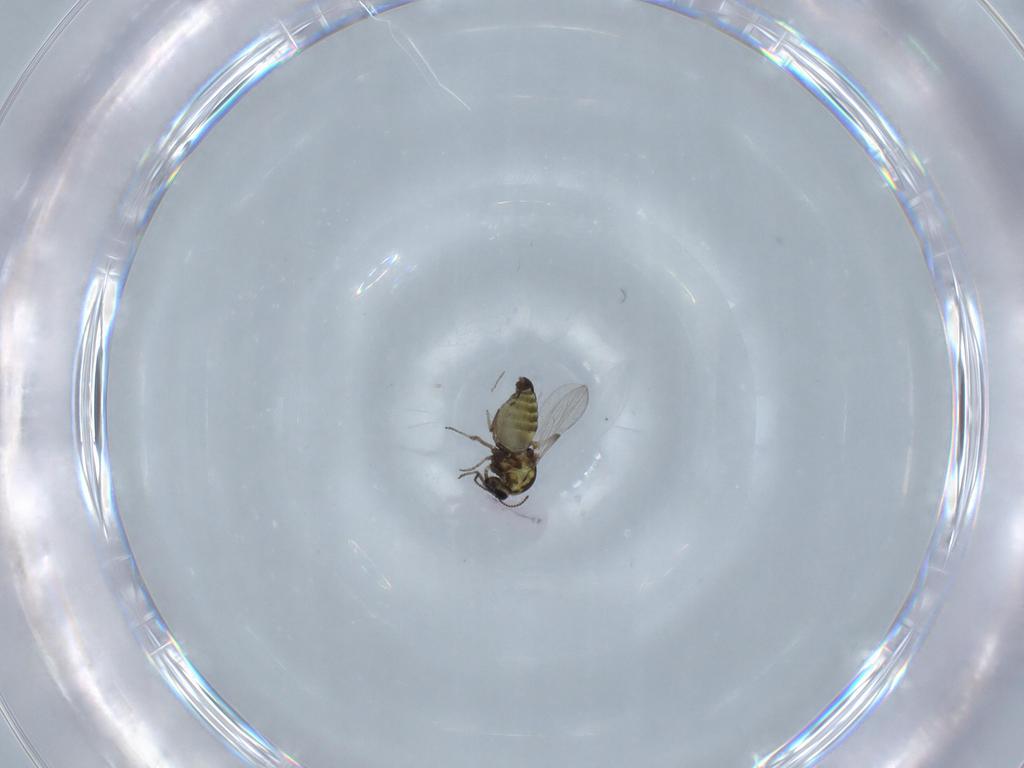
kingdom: Animalia
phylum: Arthropoda
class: Insecta
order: Diptera
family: Ceratopogonidae
